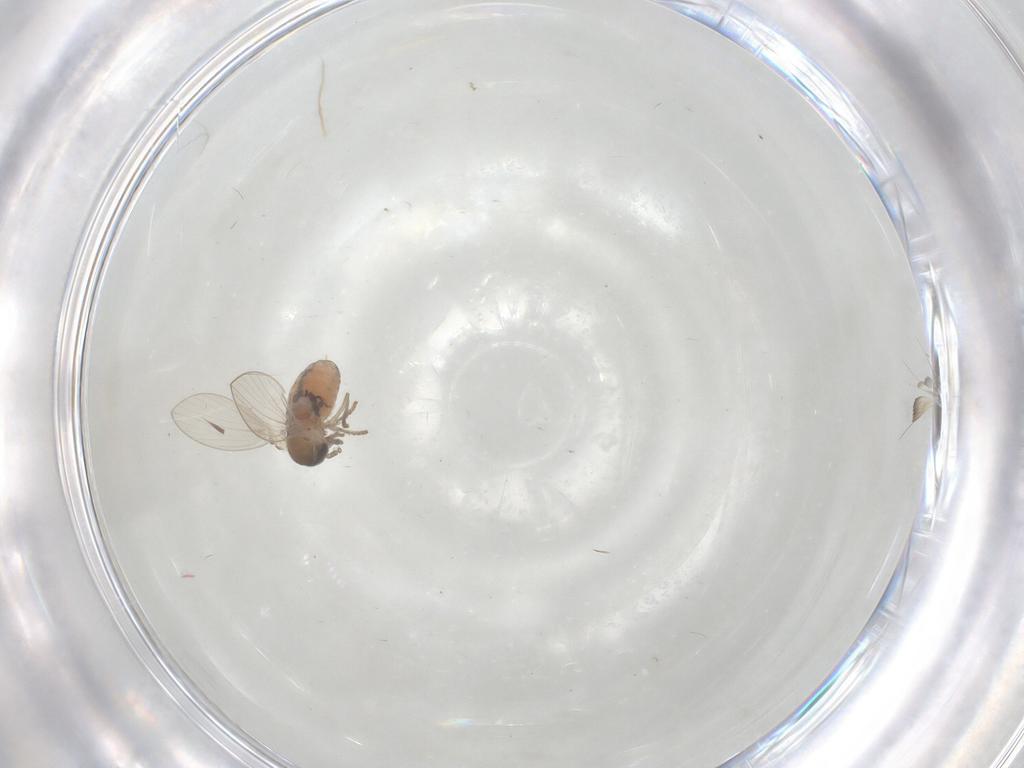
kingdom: Animalia
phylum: Arthropoda
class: Insecta
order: Diptera
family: Psychodidae
